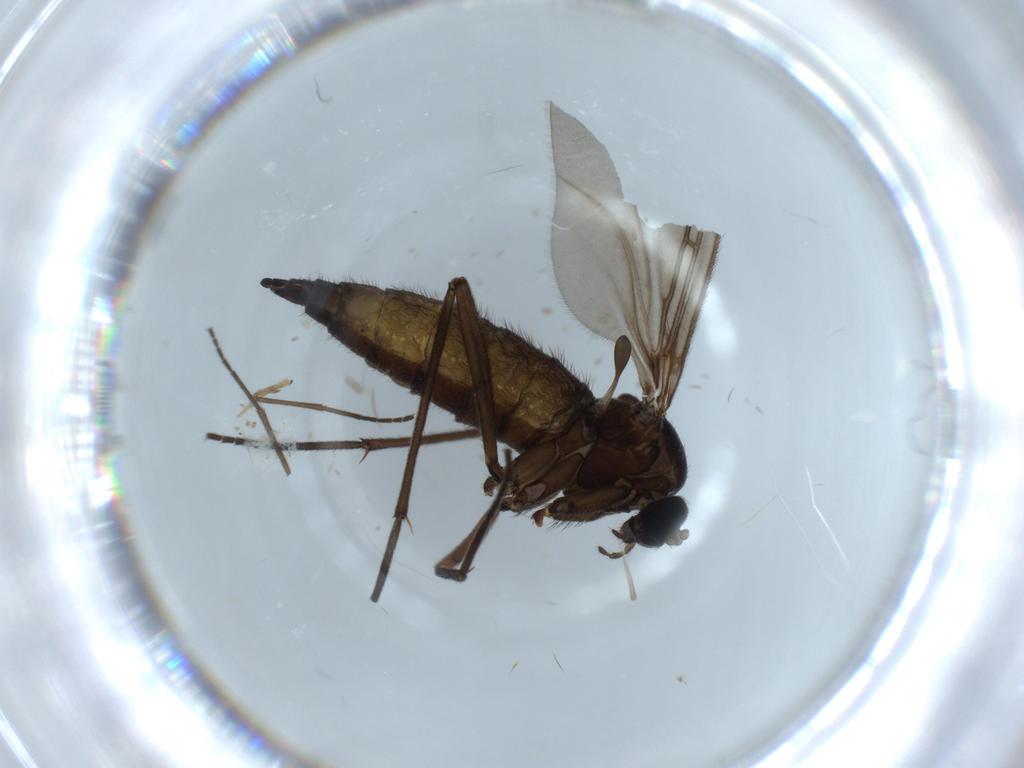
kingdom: Animalia
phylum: Arthropoda
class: Insecta
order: Diptera
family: Sciaridae
